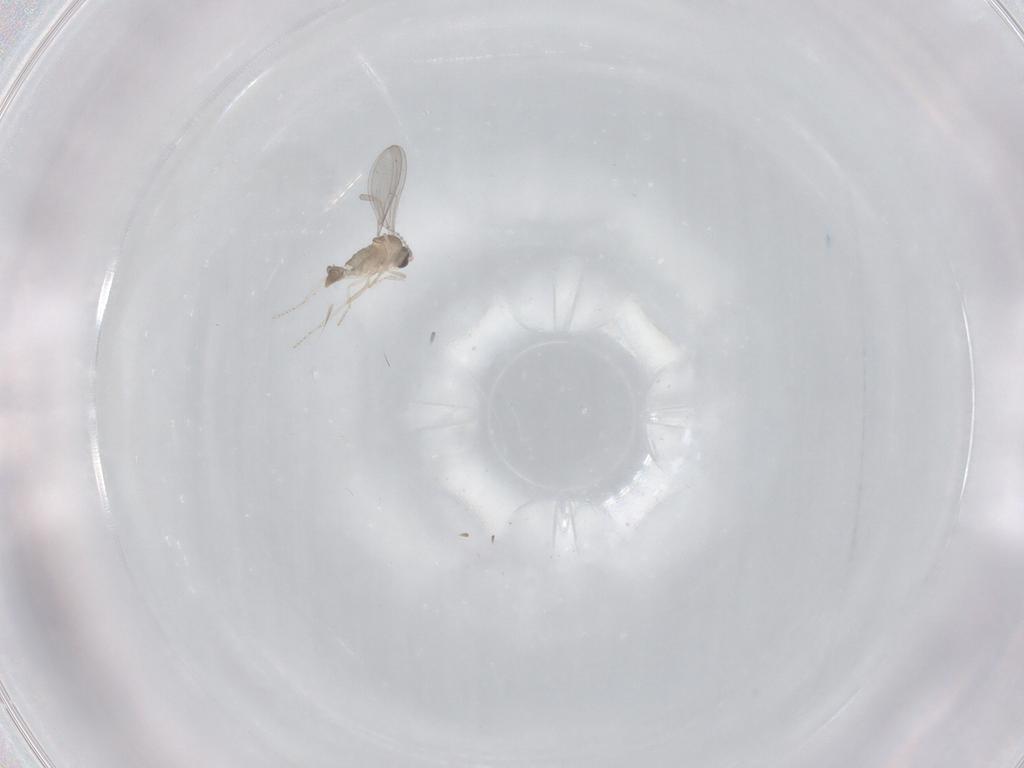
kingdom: Animalia
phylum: Arthropoda
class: Insecta
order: Diptera
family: Cecidomyiidae
